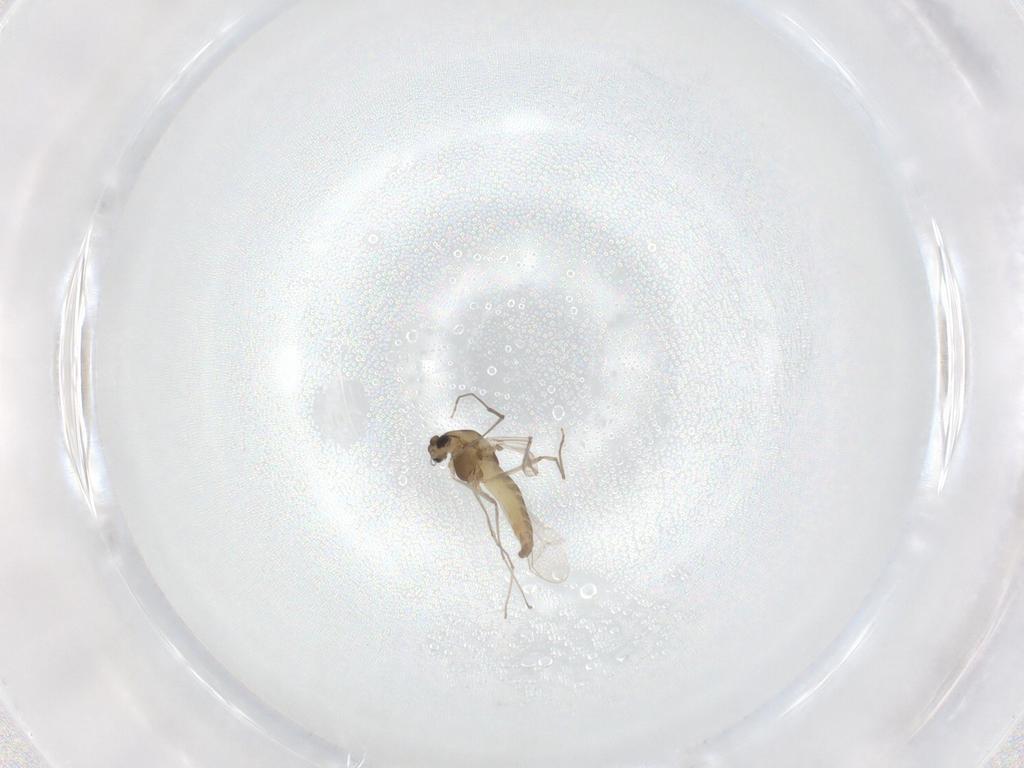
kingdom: Animalia
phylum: Arthropoda
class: Insecta
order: Diptera
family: Chironomidae
